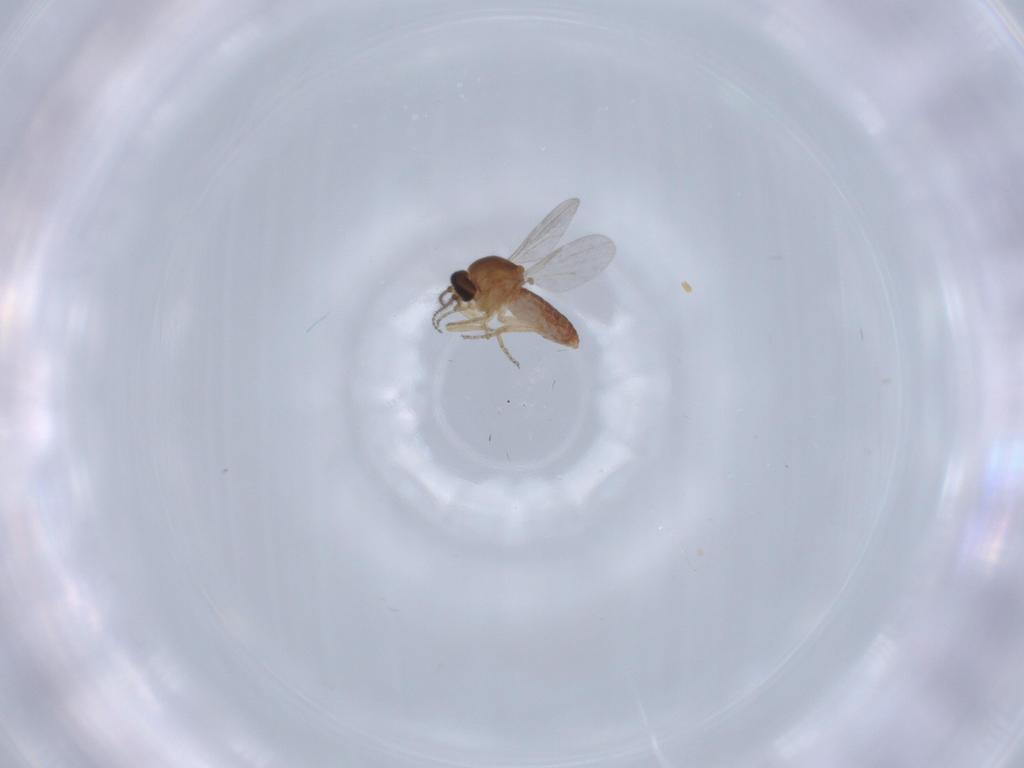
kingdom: Animalia
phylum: Arthropoda
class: Insecta
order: Diptera
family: Ceratopogonidae
